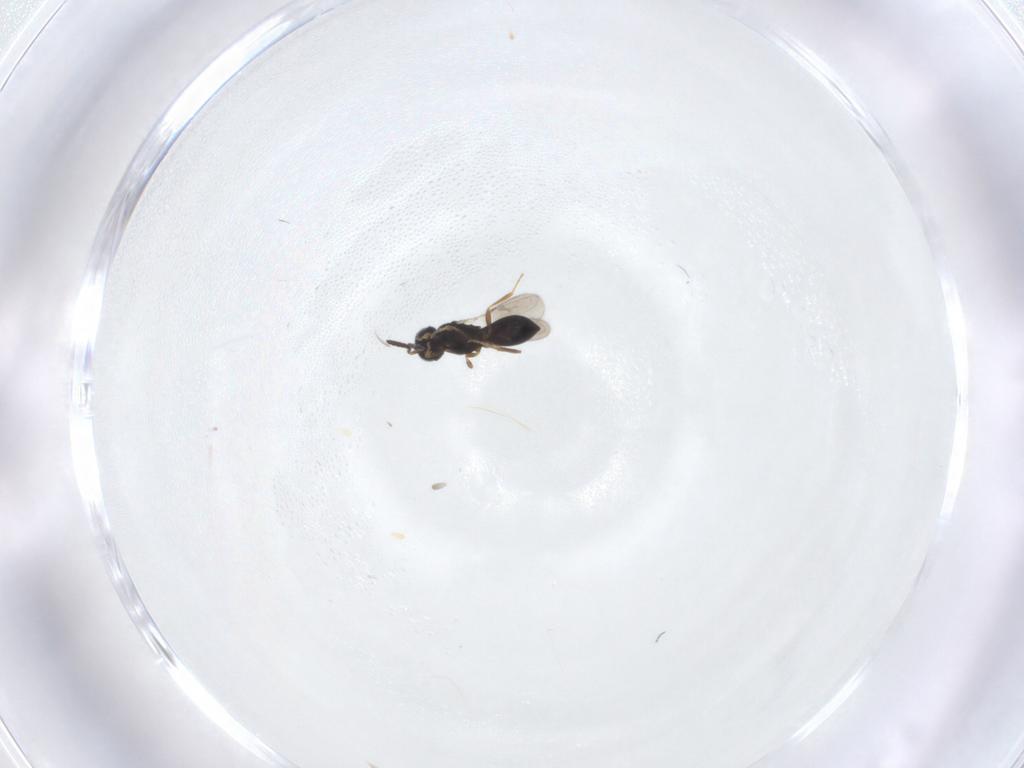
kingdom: Animalia
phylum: Arthropoda
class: Insecta
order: Hymenoptera
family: Scelionidae
